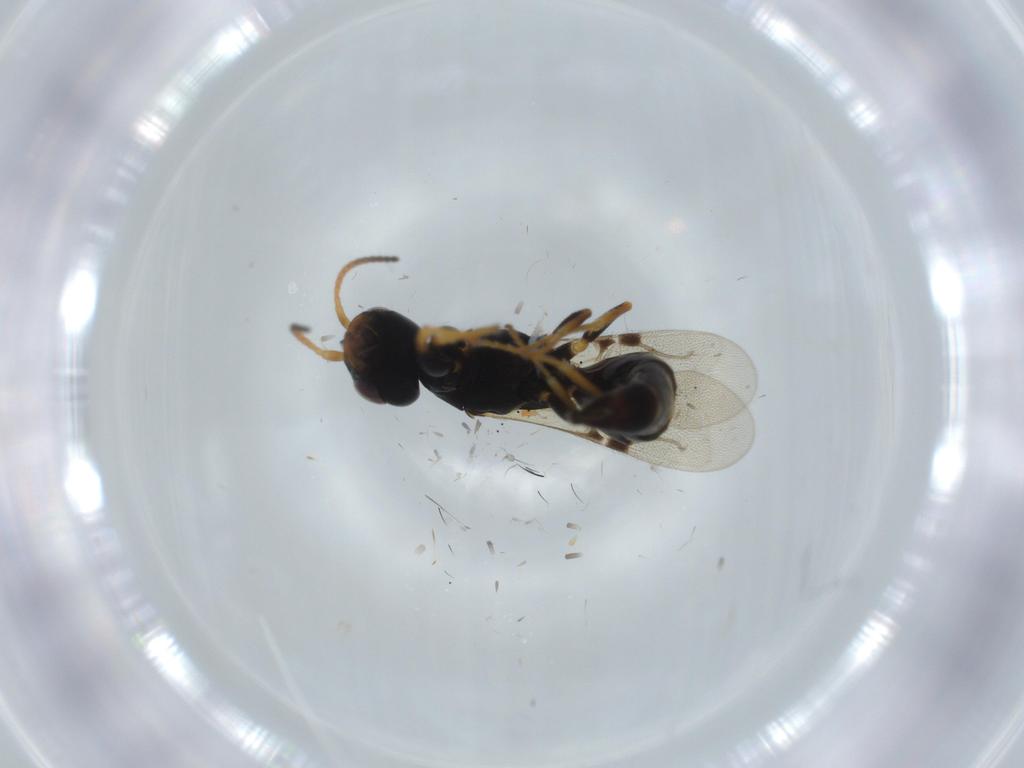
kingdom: Animalia
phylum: Arthropoda
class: Insecta
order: Hymenoptera
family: Bethylidae
